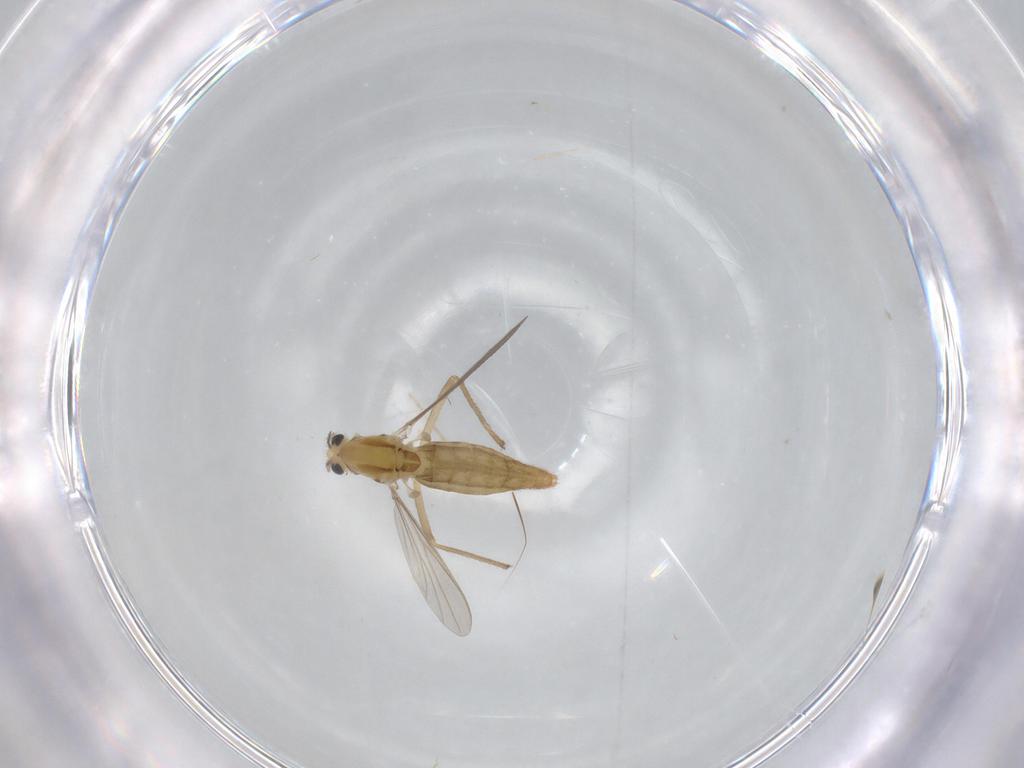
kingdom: Animalia
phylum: Arthropoda
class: Insecta
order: Diptera
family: Chironomidae
